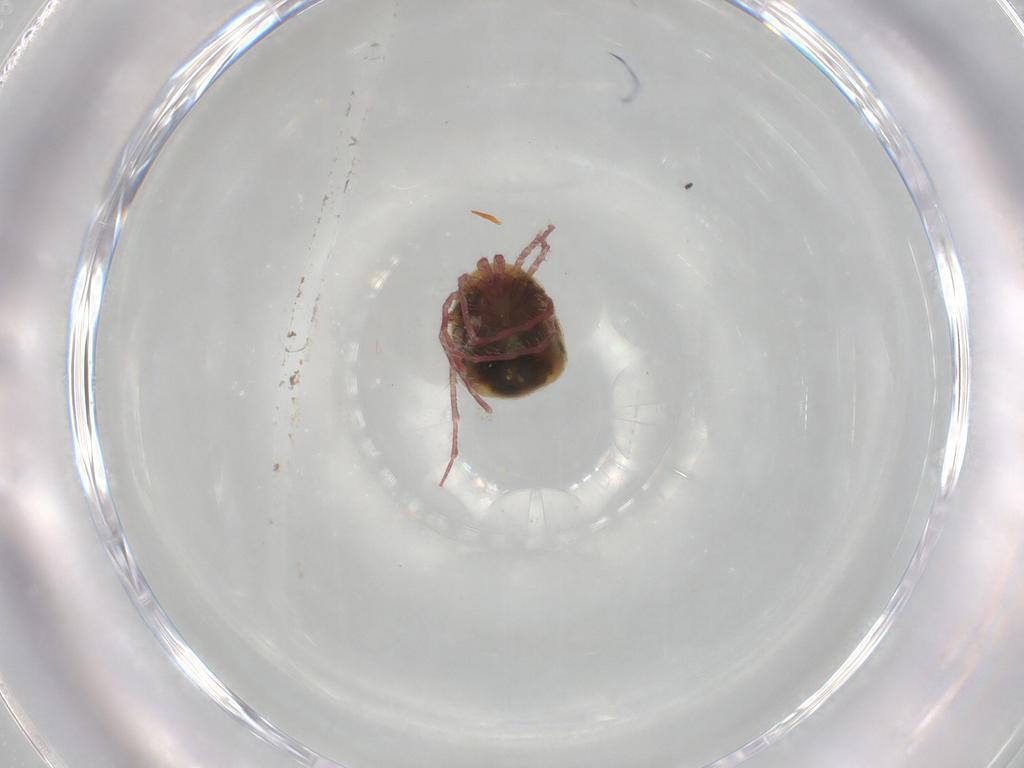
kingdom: Animalia
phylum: Arthropoda
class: Arachnida
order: Trombidiformes
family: Pionidae
